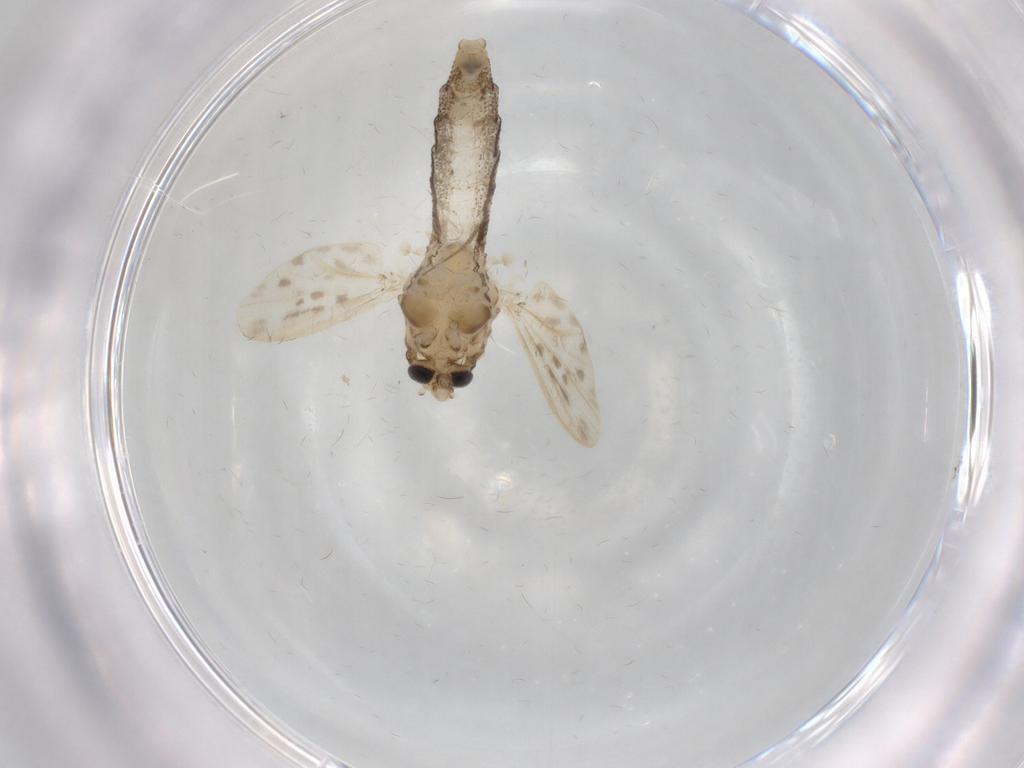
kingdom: Animalia
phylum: Arthropoda
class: Insecta
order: Diptera
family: Chaoboridae
